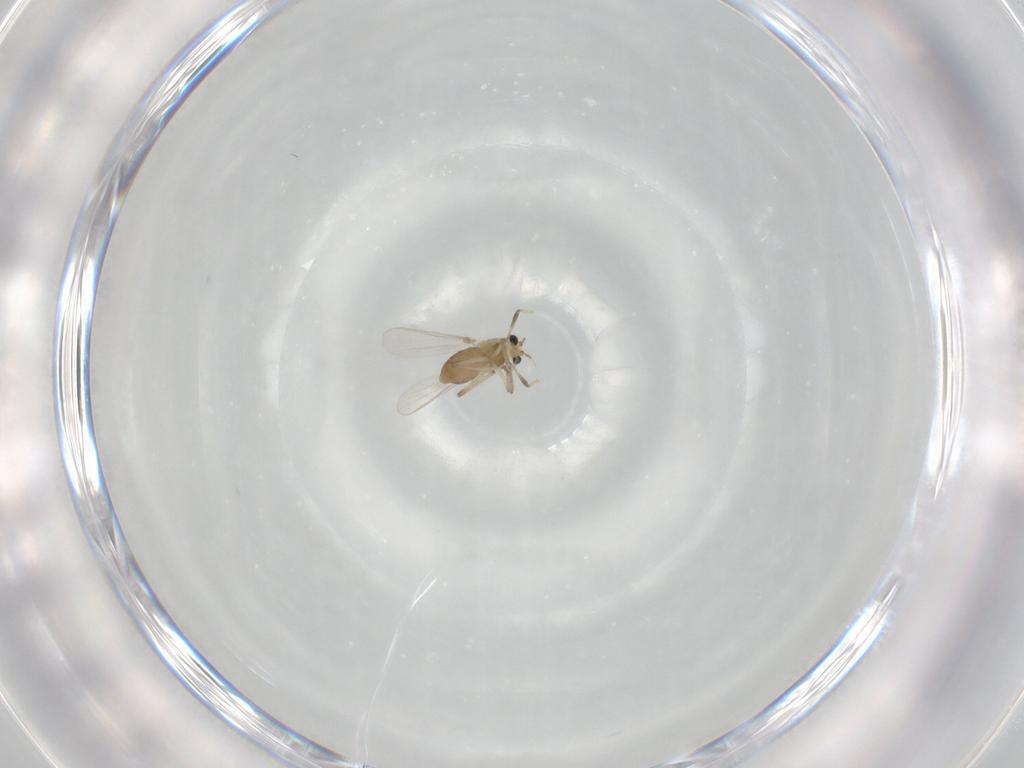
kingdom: Animalia
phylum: Arthropoda
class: Insecta
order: Diptera
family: Chironomidae
